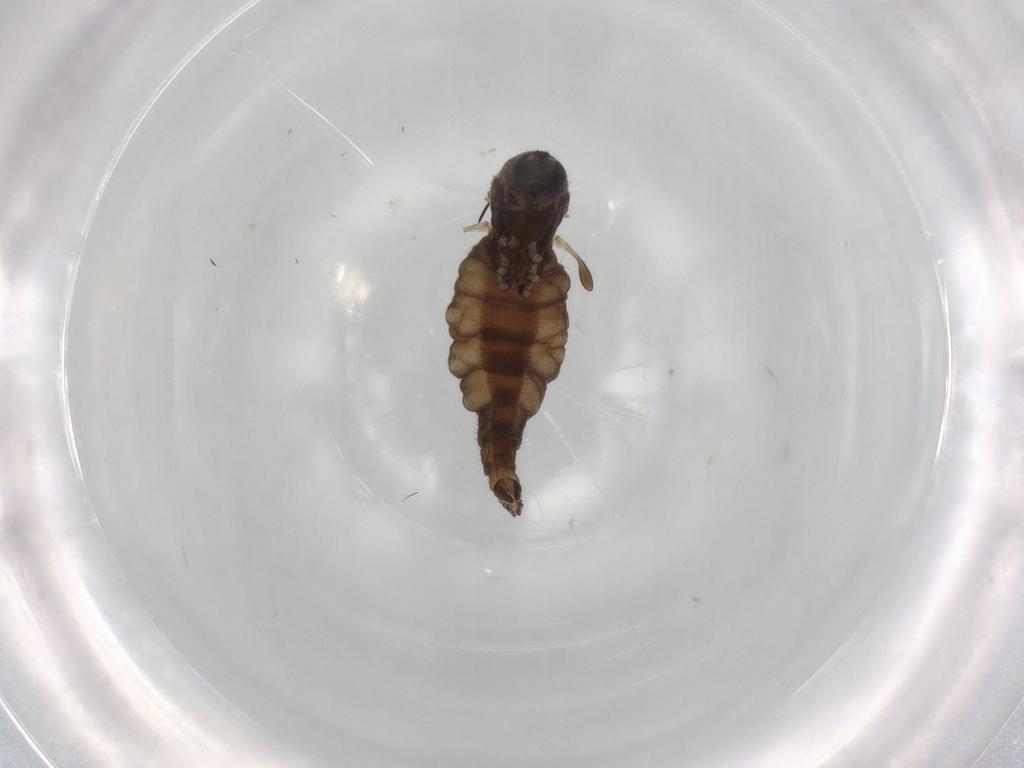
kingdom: Animalia
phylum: Arthropoda
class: Insecta
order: Diptera
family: Sciaridae
